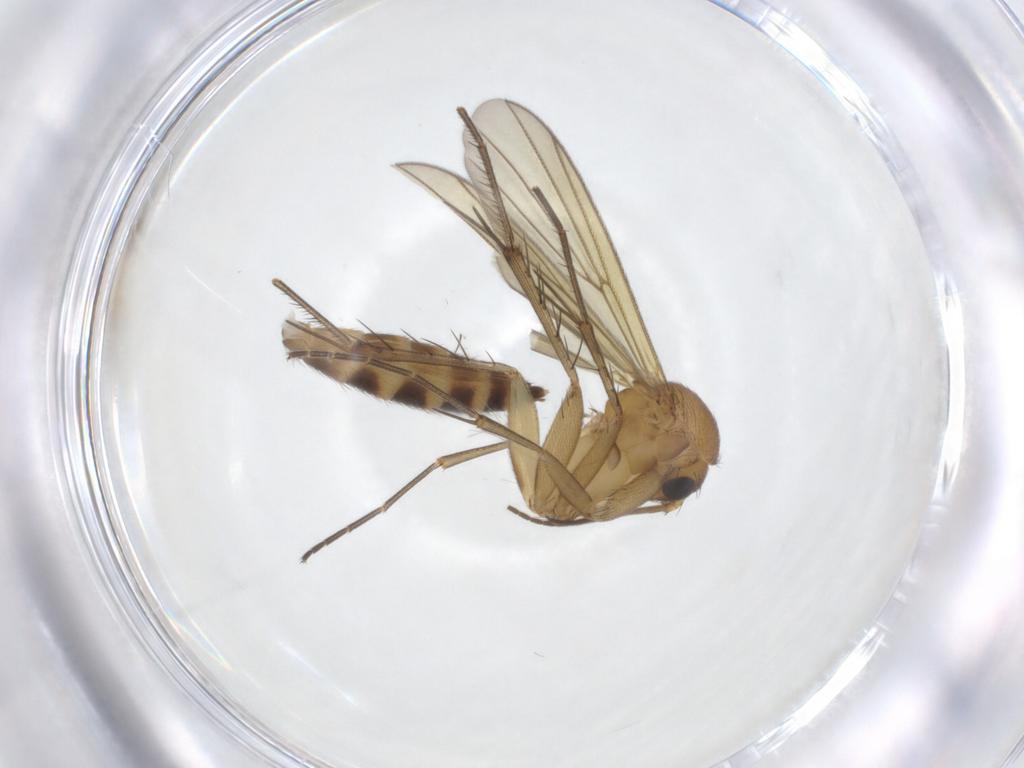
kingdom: Animalia
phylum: Arthropoda
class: Insecta
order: Diptera
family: Mycetophilidae
